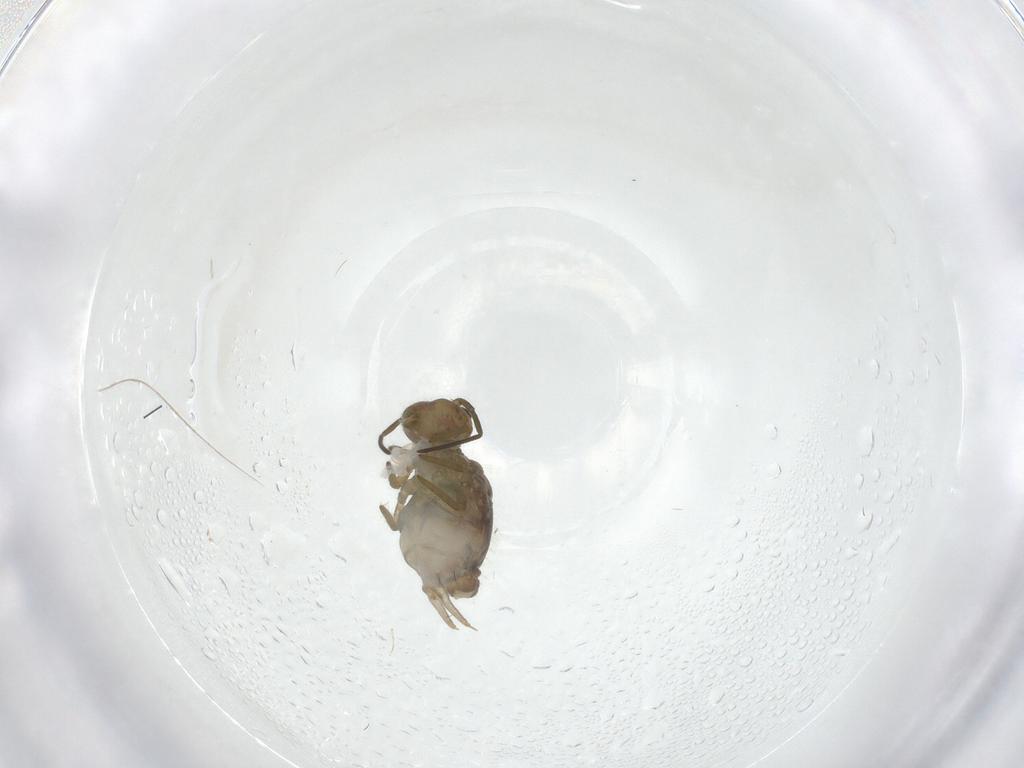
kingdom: Animalia
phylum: Arthropoda
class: Collembola
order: Symphypleona
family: Sminthuridae
